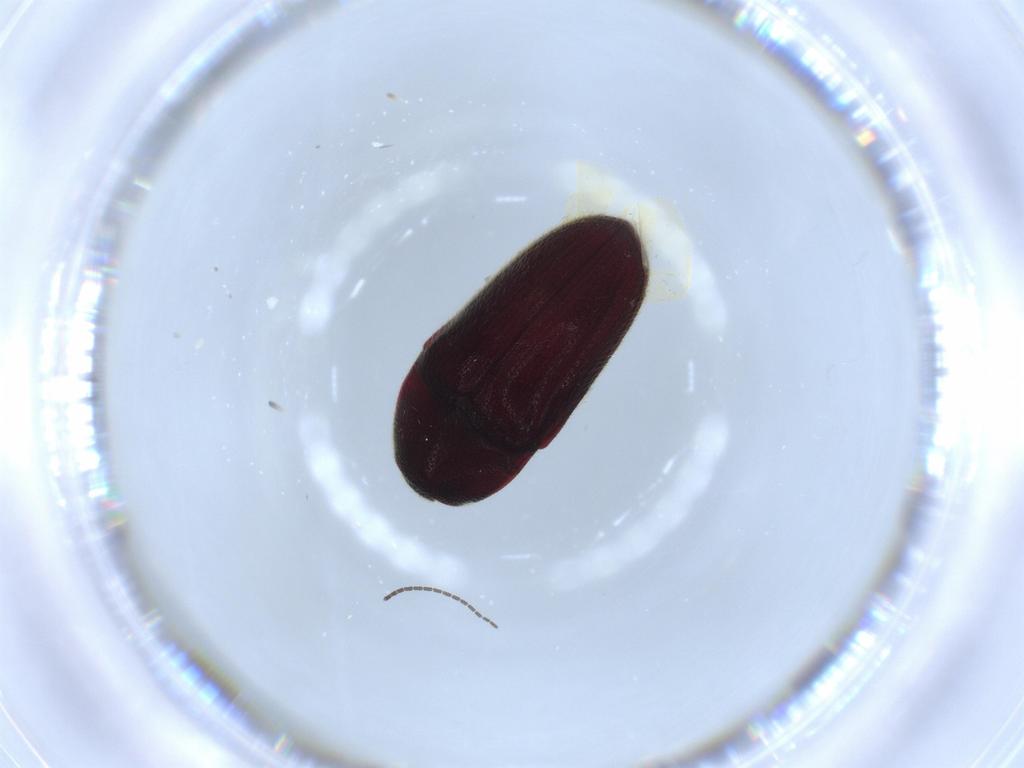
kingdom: Animalia
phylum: Arthropoda
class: Insecta
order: Coleoptera
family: Throscidae
